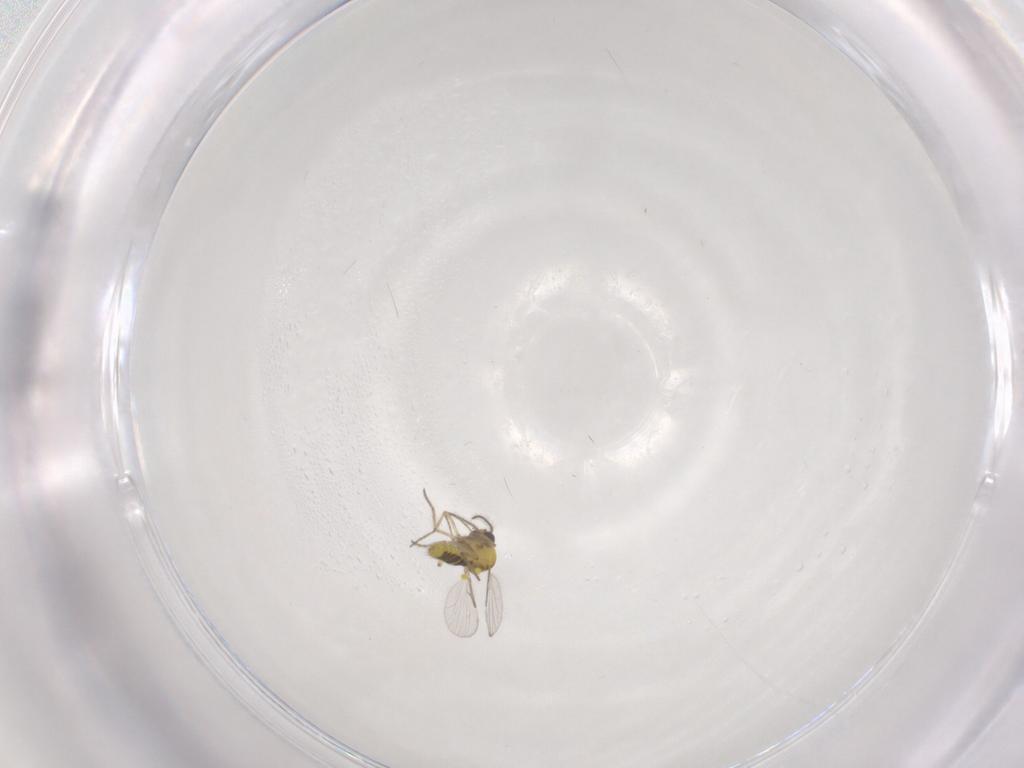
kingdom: Animalia
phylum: Arthropoda
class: Insecta
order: Diptera
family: Ceratopogonidae
